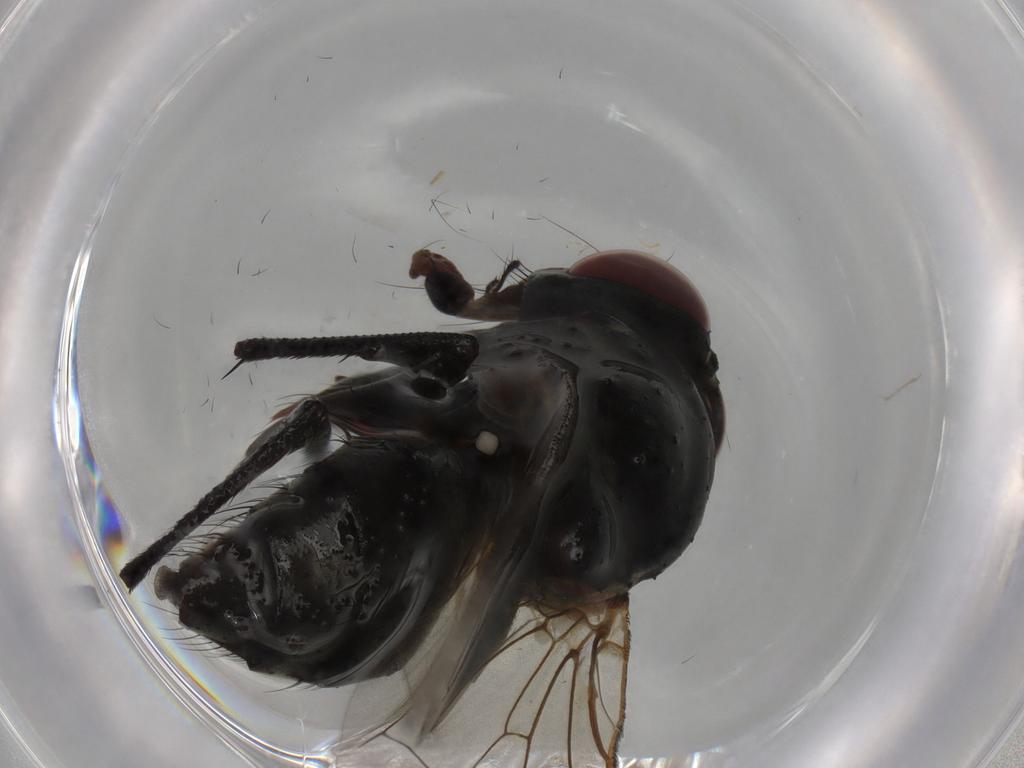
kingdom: Animalia
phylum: Arthropoda
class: Insecta
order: Diptera
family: Anthomyiidae
